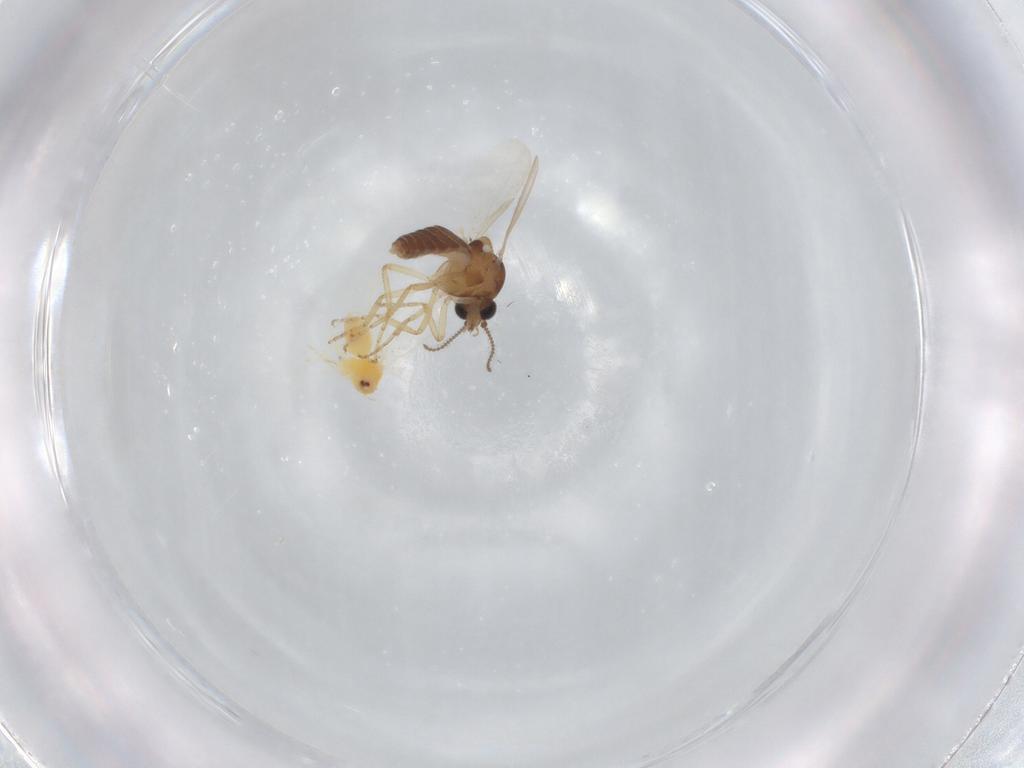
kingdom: Animalia
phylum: Arthropoda
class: Insecta
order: Diptera
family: Ceratopogonidae
